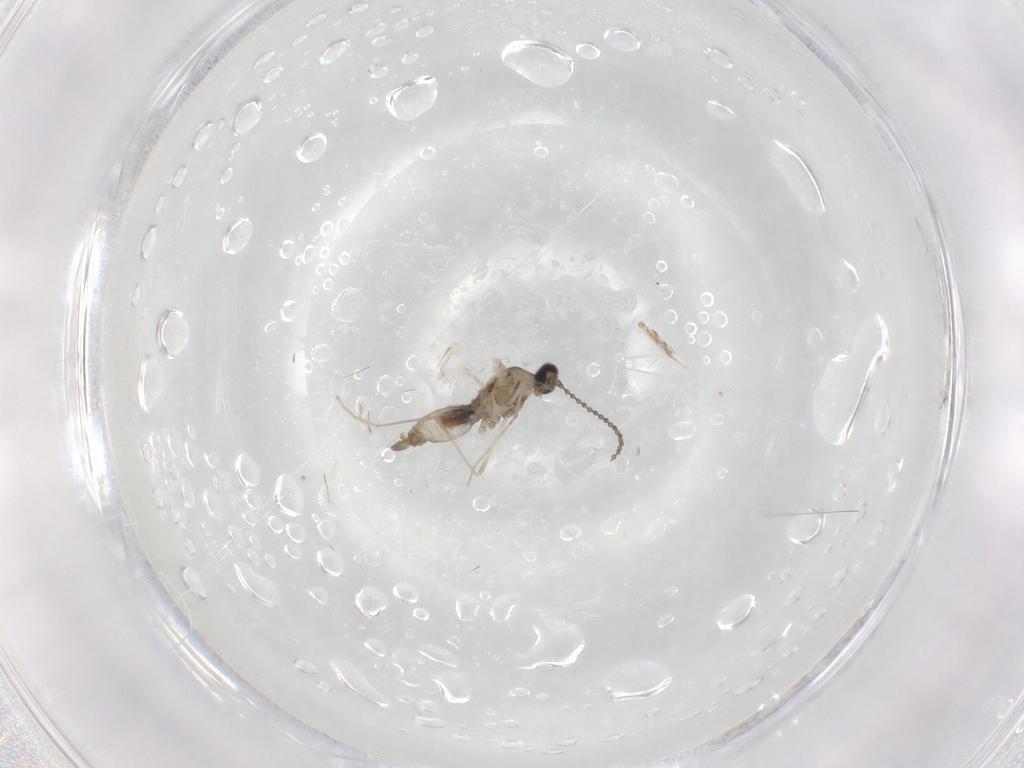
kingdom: Animalia
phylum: Arthropoda
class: Insecta
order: Diptera
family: Cecidomyiidae
